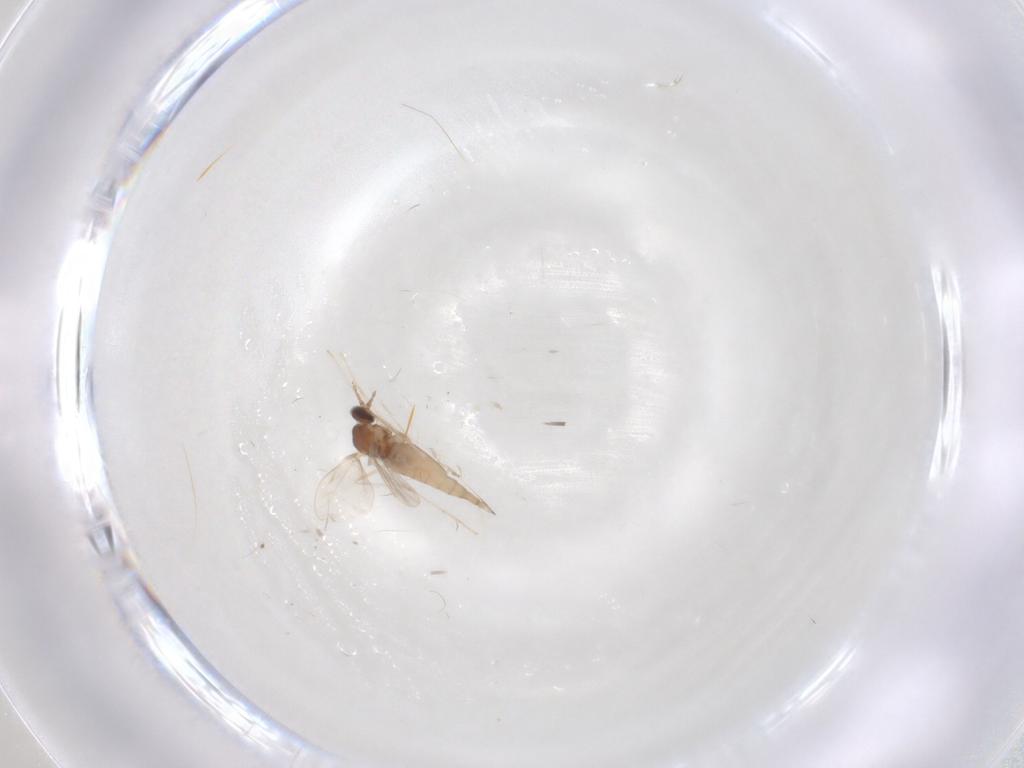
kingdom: Animalia
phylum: Arthropoda
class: Insecta
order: Diptera
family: Cecidomyiidae
